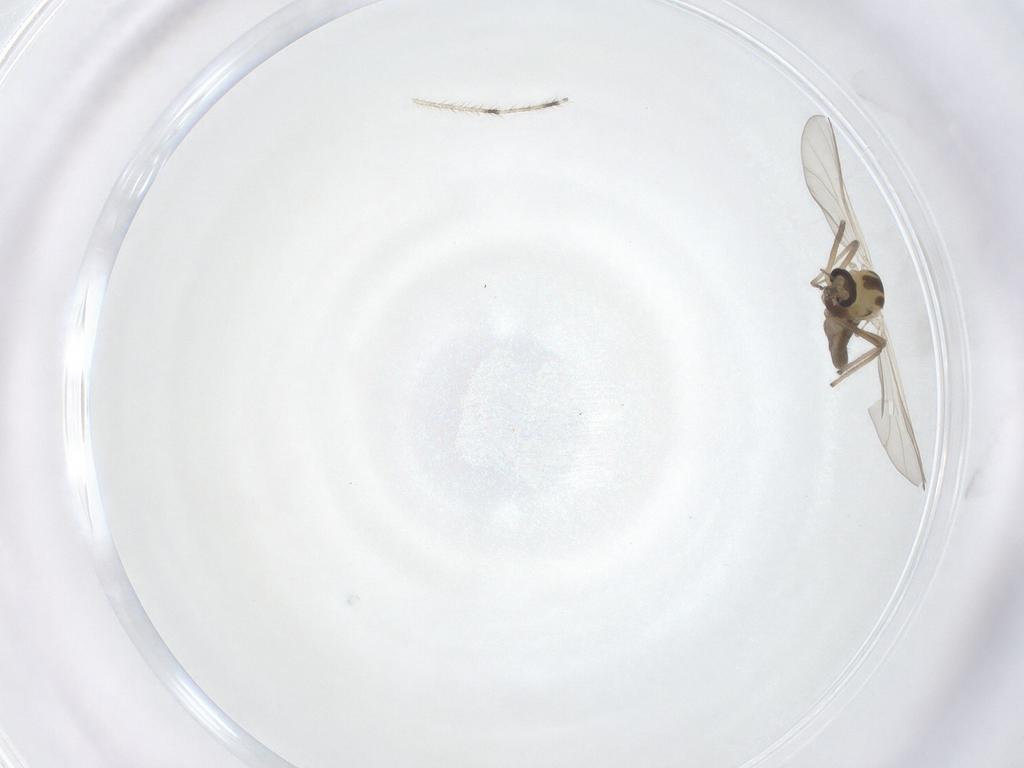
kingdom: Animalia
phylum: Arthropoda
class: Insecta
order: Diptera
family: Chironomidae
